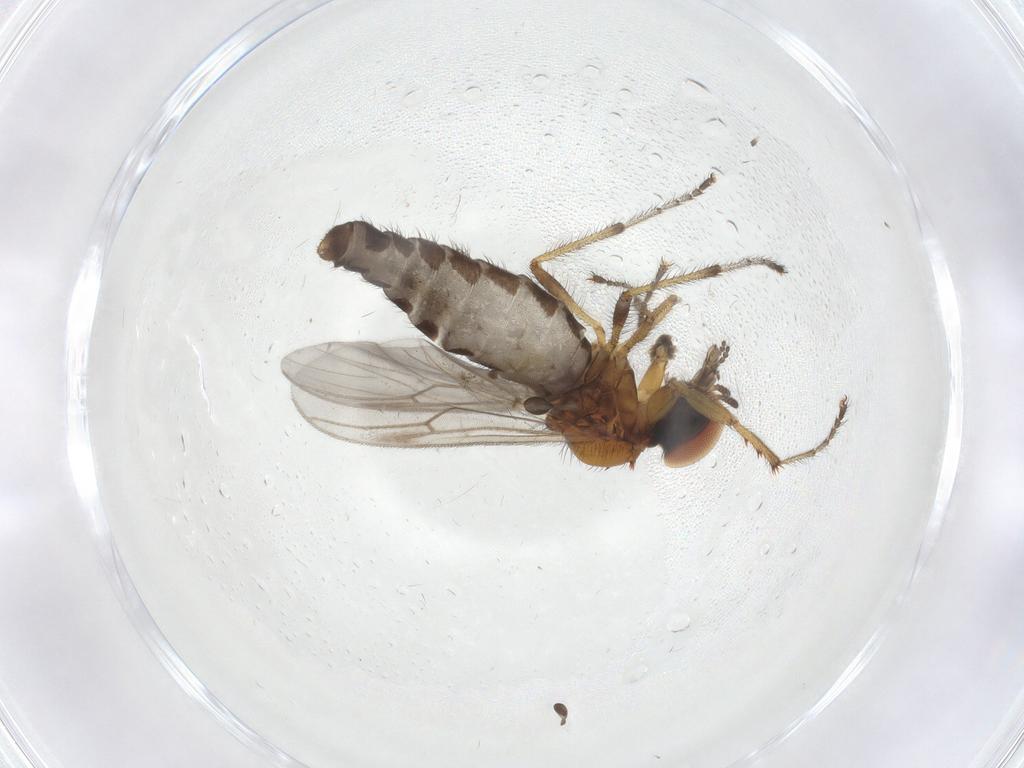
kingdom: Animalia
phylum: Arthropoda
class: Insecta
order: Diptera
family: Bibionidae
